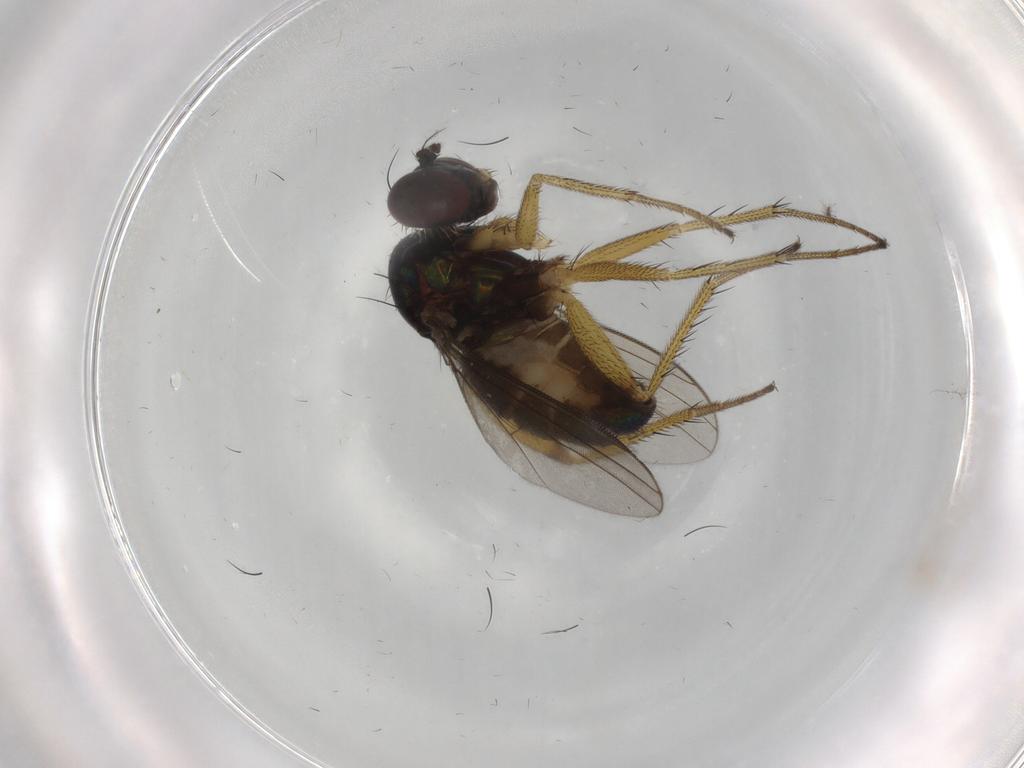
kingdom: Animalia
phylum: Arthropoda
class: Insecta
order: Diptera
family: Dolichopodidae
